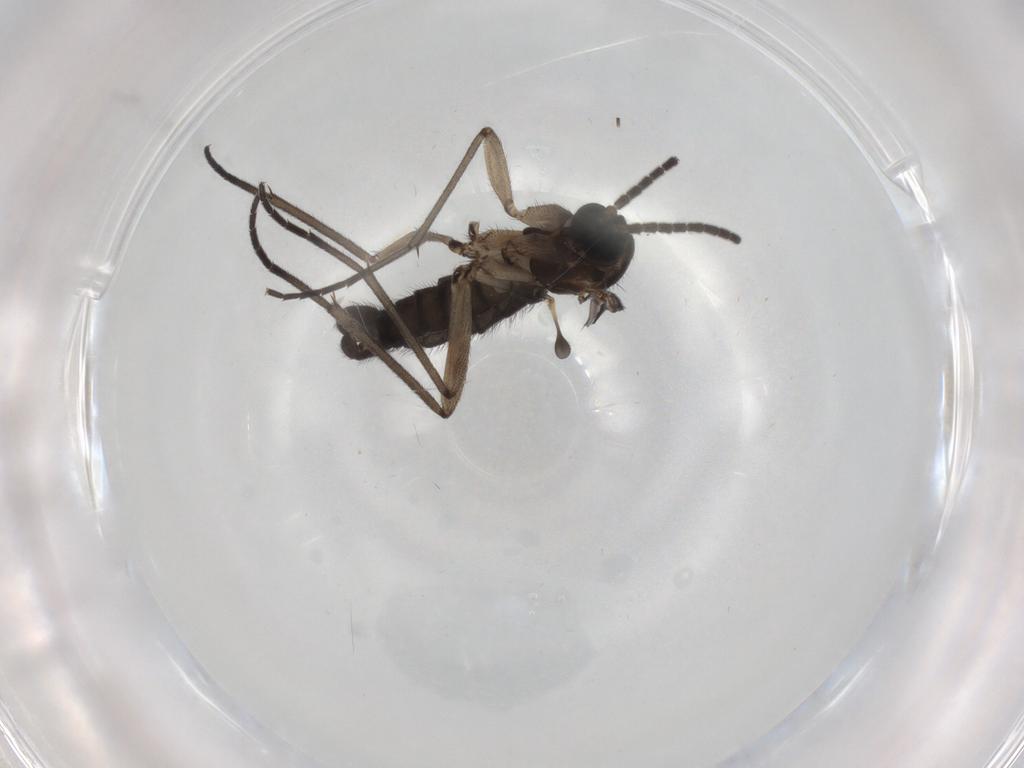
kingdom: Animalia
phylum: Arthropoda
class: Insecta
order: Diptera
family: Sciaridae
